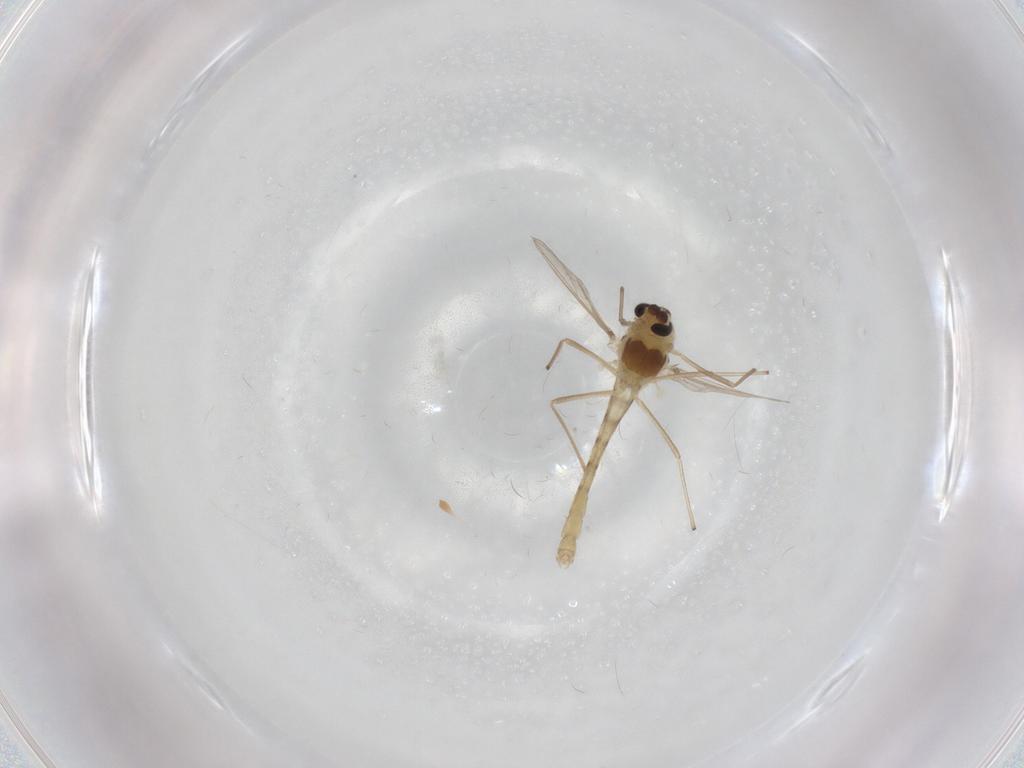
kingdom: Animalia
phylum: Arthropoda
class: Insecta
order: Diptera
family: Chironomidae
